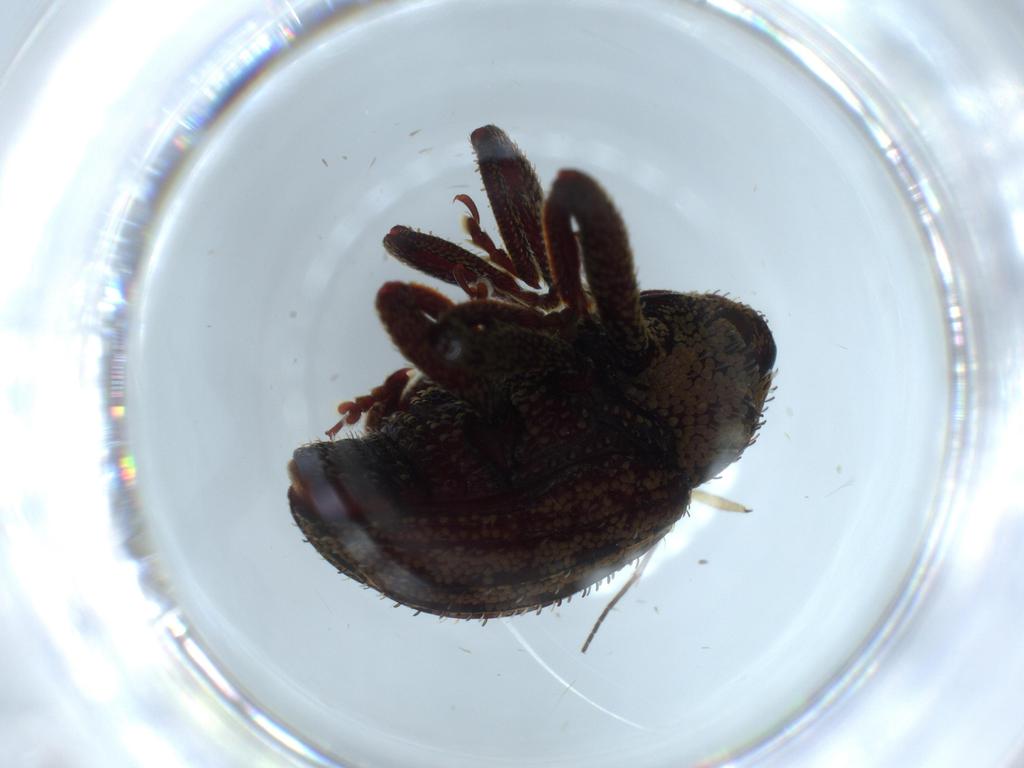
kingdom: Animalia
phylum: Arthropoda
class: Insecta
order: Coleoptera
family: Curculionidae
